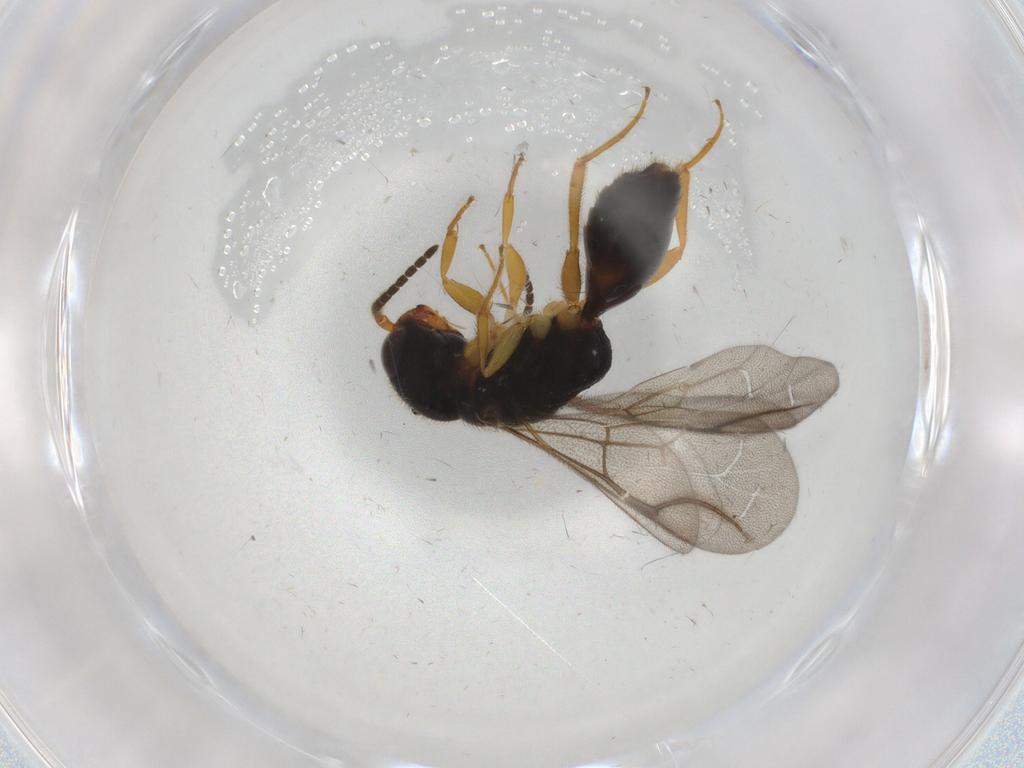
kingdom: Animalia
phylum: Arthropoda
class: Insecta
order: Hymenoptera
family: Bethylidae
